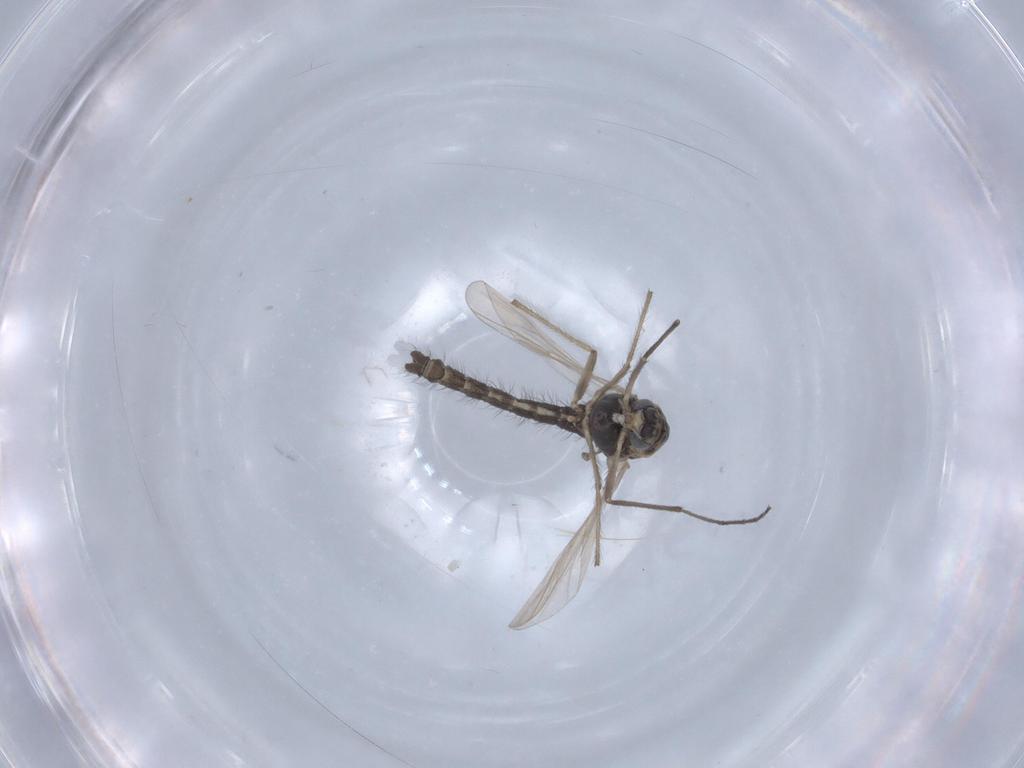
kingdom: Animalia
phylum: Arthropoda
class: Insecta
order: Diptera
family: Chironomidae
